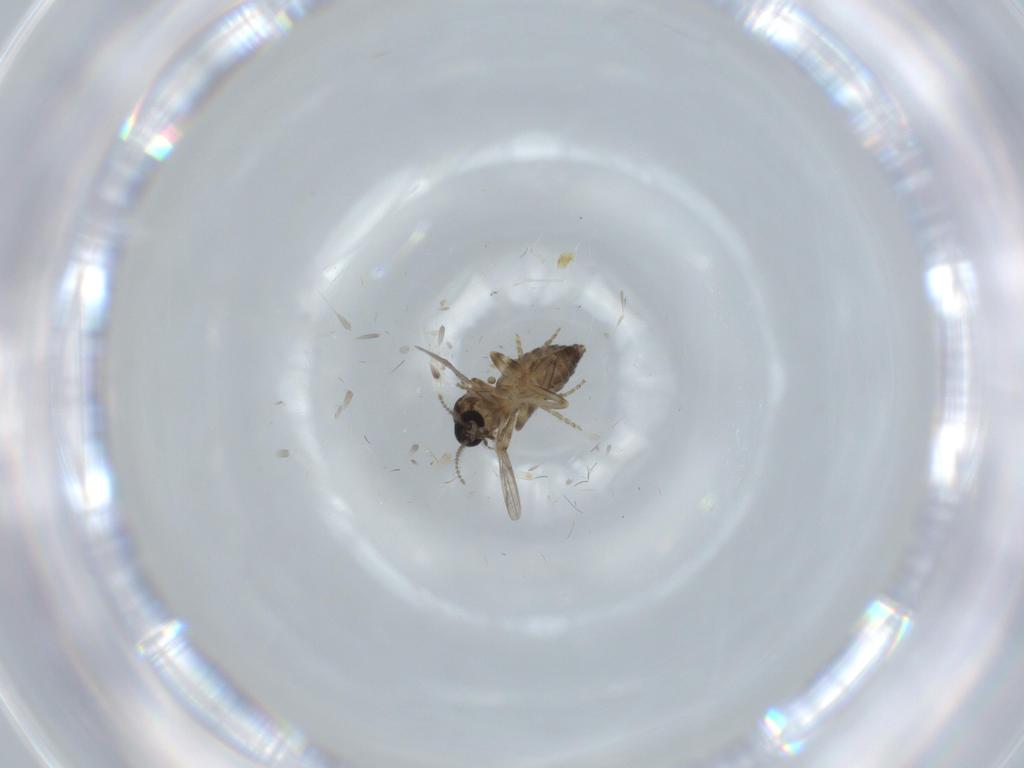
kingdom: Animalia
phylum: Arthropoda
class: Insecta
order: Diptera
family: Ceratopogonidae
